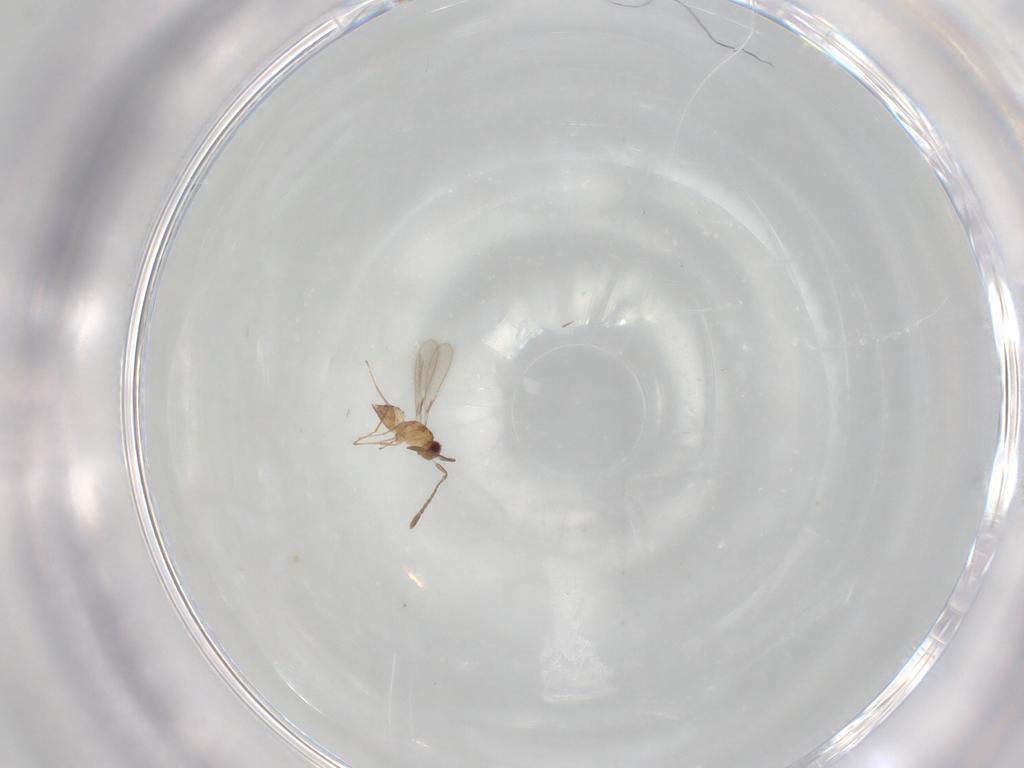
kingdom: Animalia
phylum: Arthropoda
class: Insecta
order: Hymenoptera
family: Mymaridae
